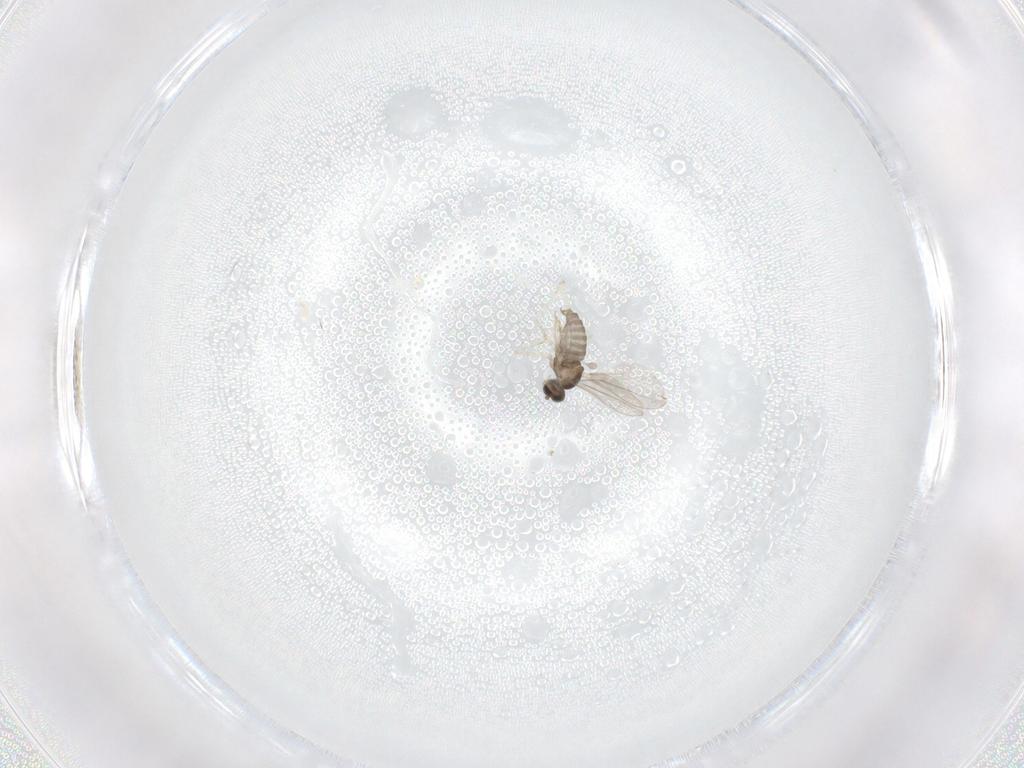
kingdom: Animalia
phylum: Arthropoda
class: Insecta
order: Diptera
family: Cecidomyiidae
